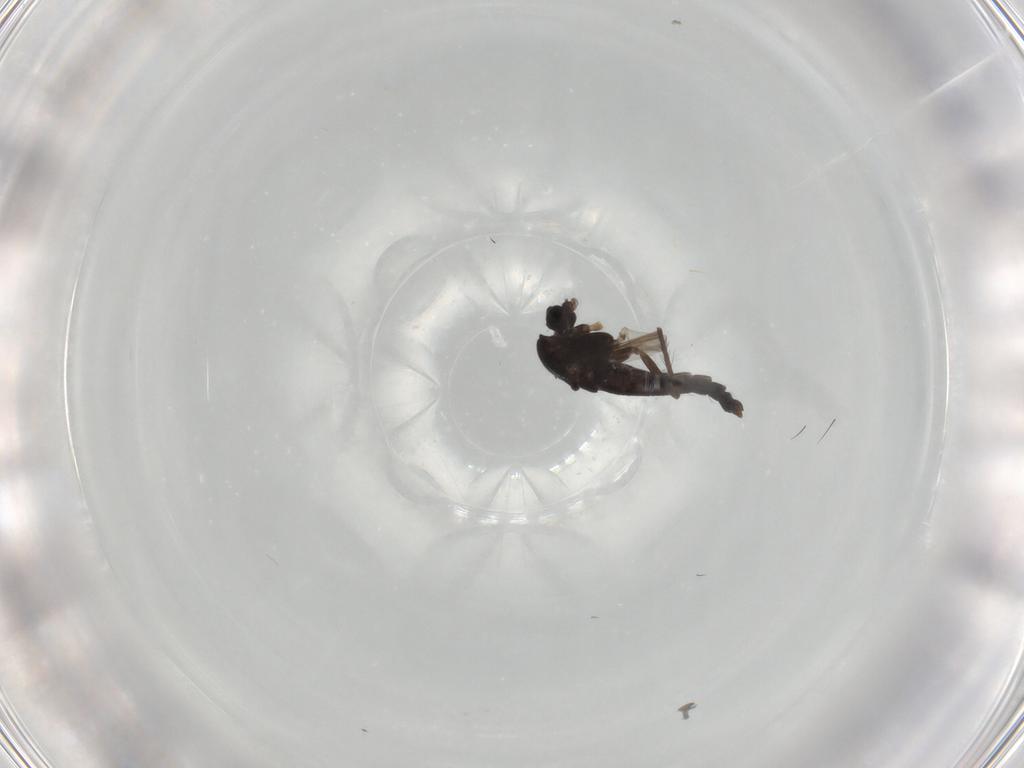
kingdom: Animalia
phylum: Arthropoda
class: Insecta
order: Diptera
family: Chironomidae
